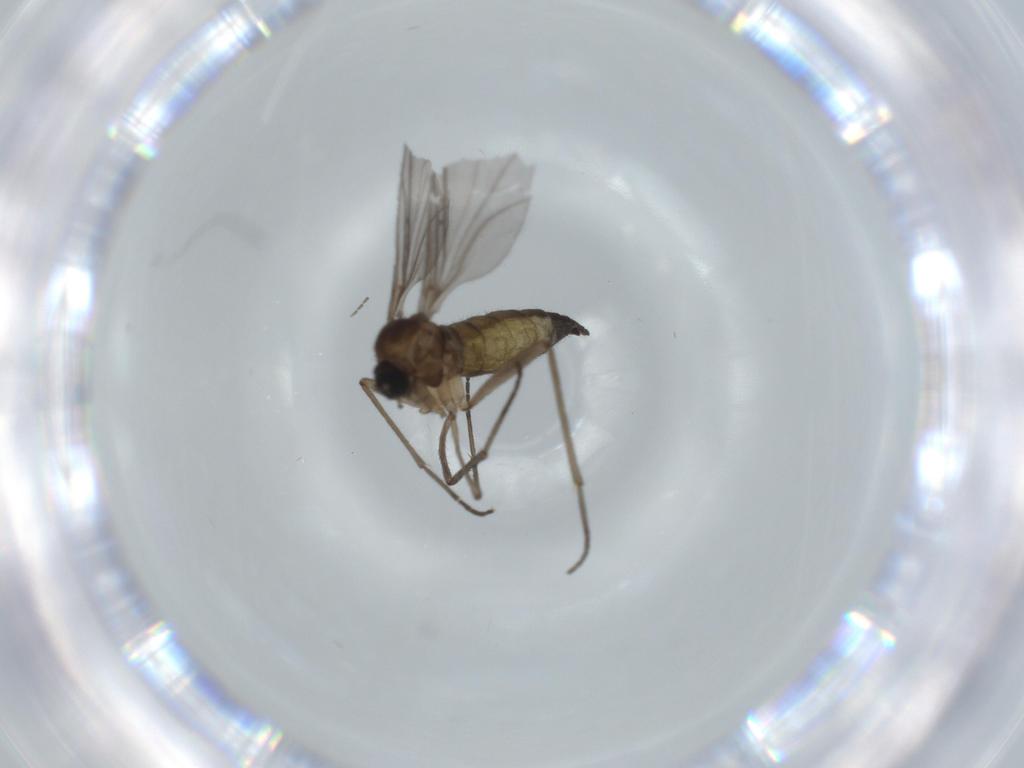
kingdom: Animalia
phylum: Arthropoda
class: Insecta
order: Diptera
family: Sciaridae
